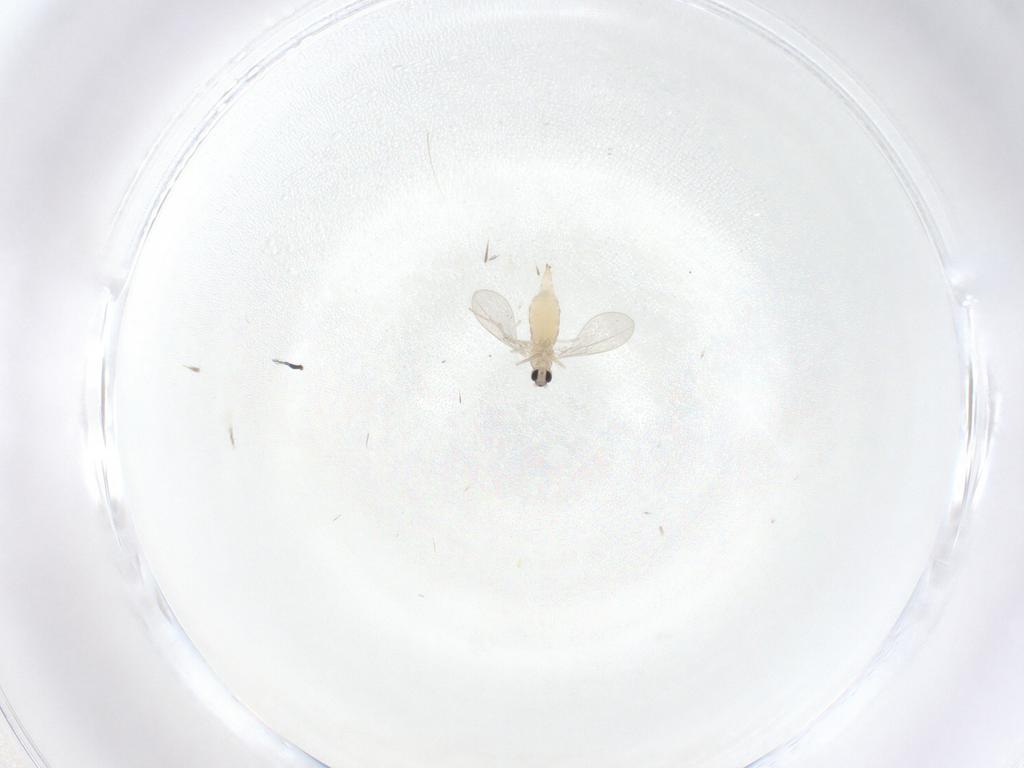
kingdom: Animalia
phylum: Arthropoda
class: Insecta
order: Diptera
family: Cecidomyiidae
